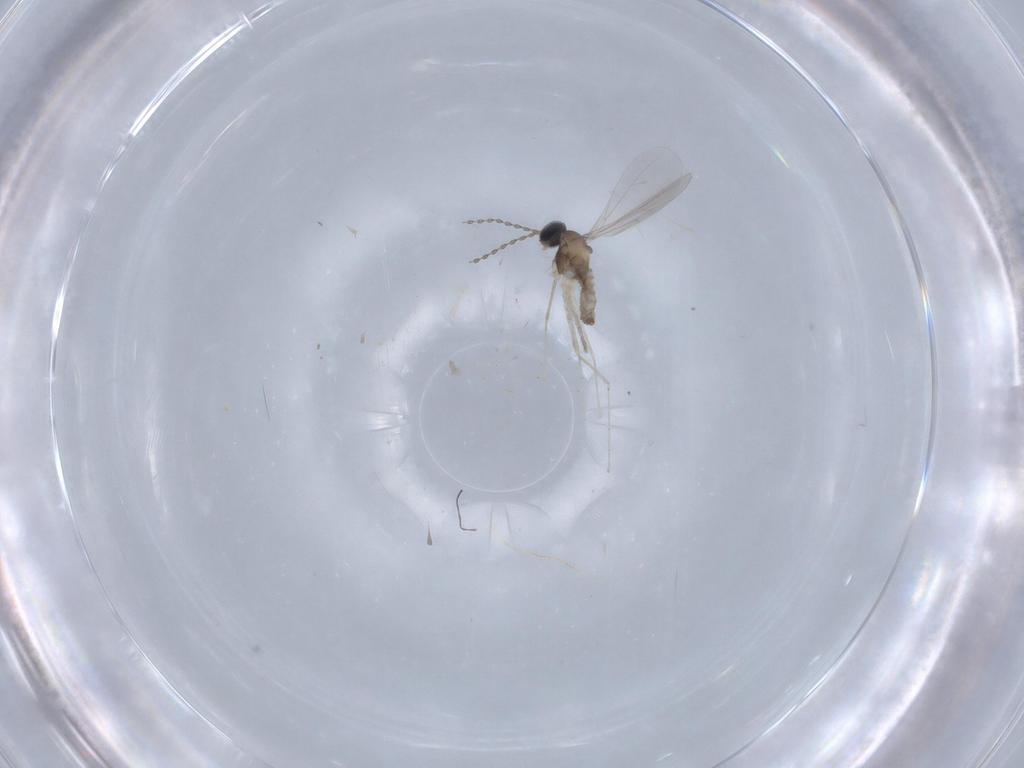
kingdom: Animalia
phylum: Arthropoda
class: Insecta
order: Diptera
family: Cecidomyiidae
